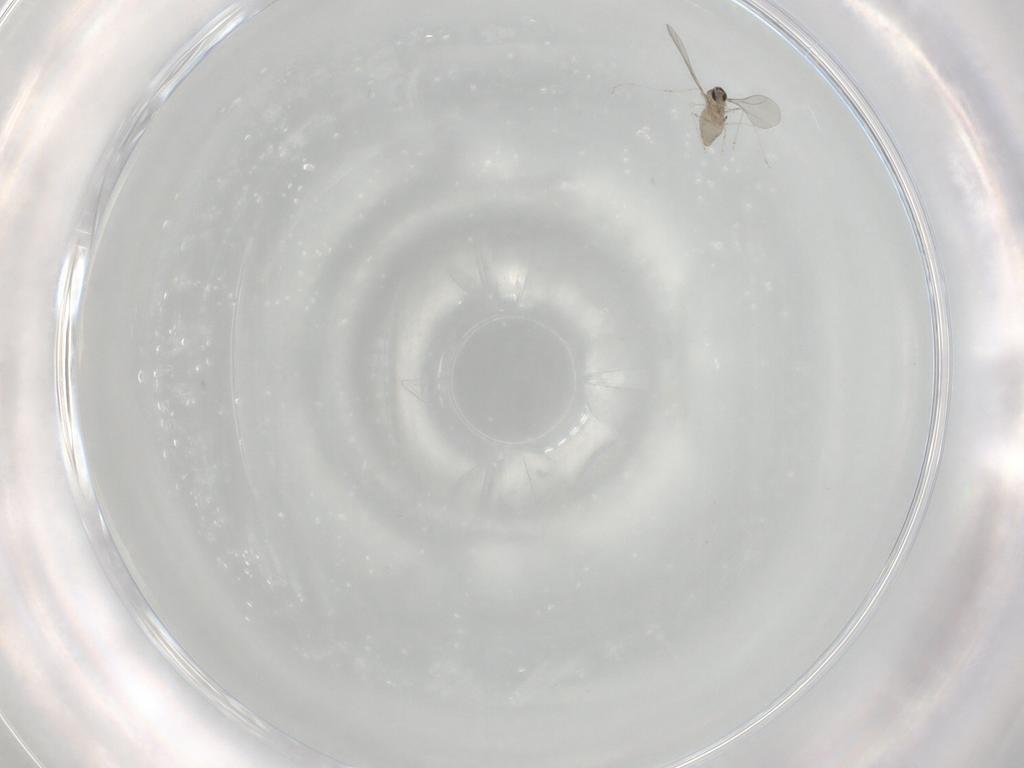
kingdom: Animalia
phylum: Arthropoda
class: Insecta
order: Diptera
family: Cecidomyiidae
